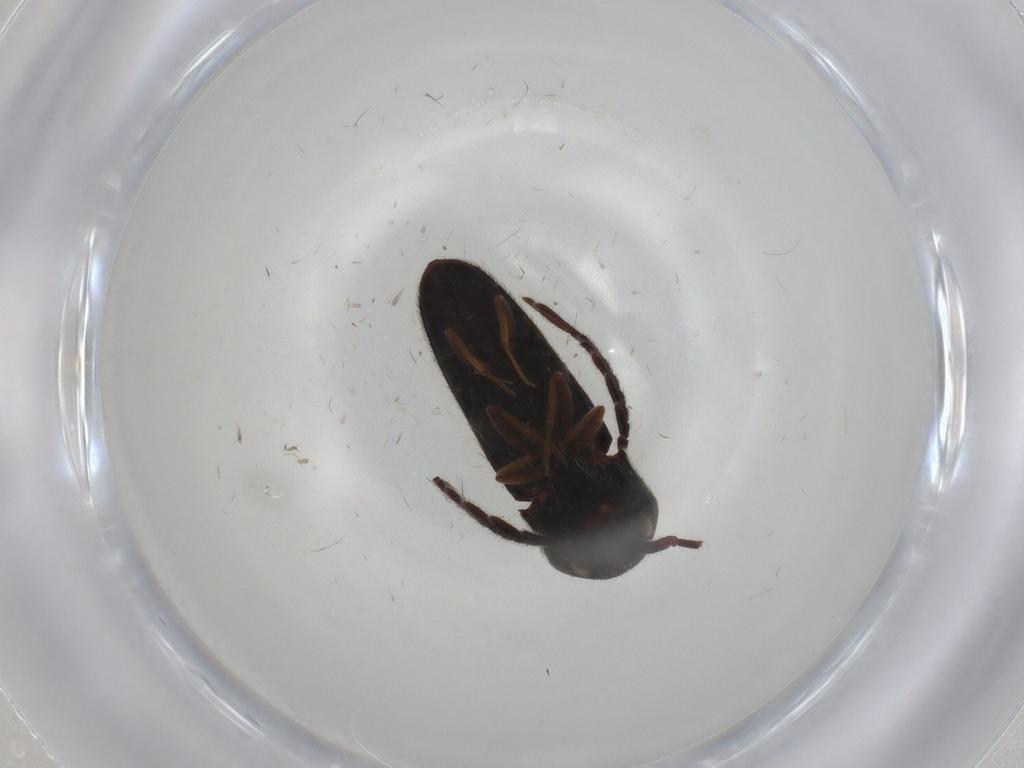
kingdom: Animalia
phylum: Arthropoda
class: Insecta
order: Coleoptera
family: Eucnemidae
